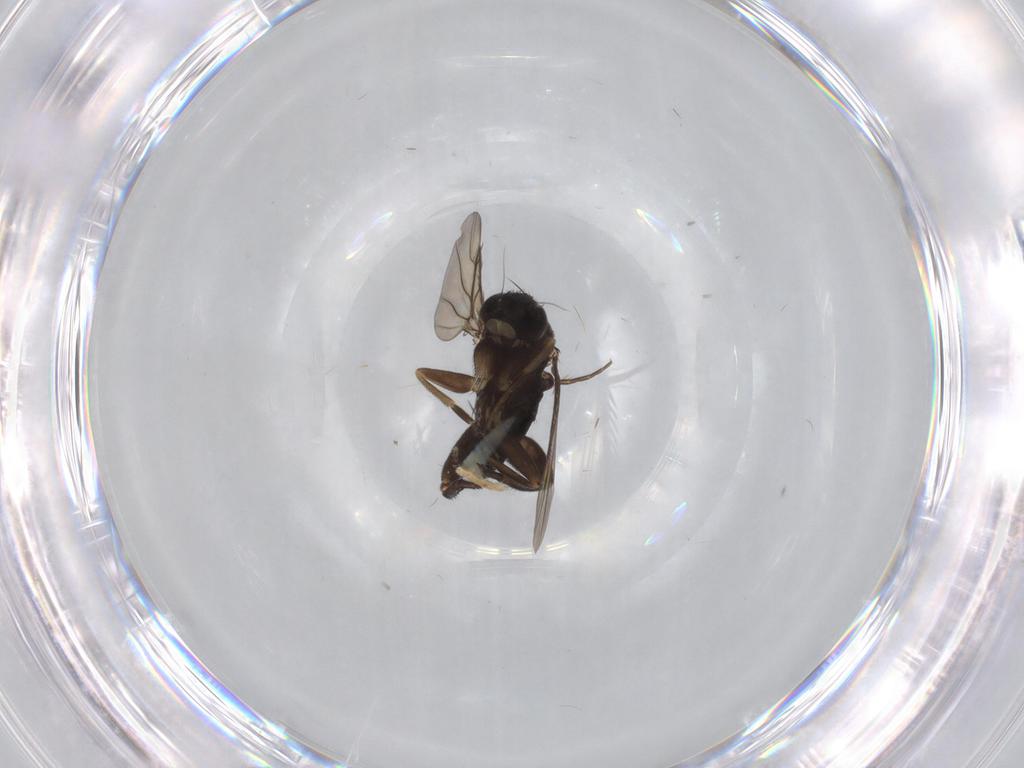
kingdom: Animalia
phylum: Arthropoda
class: Insecta
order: Diptera
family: Phoridae
